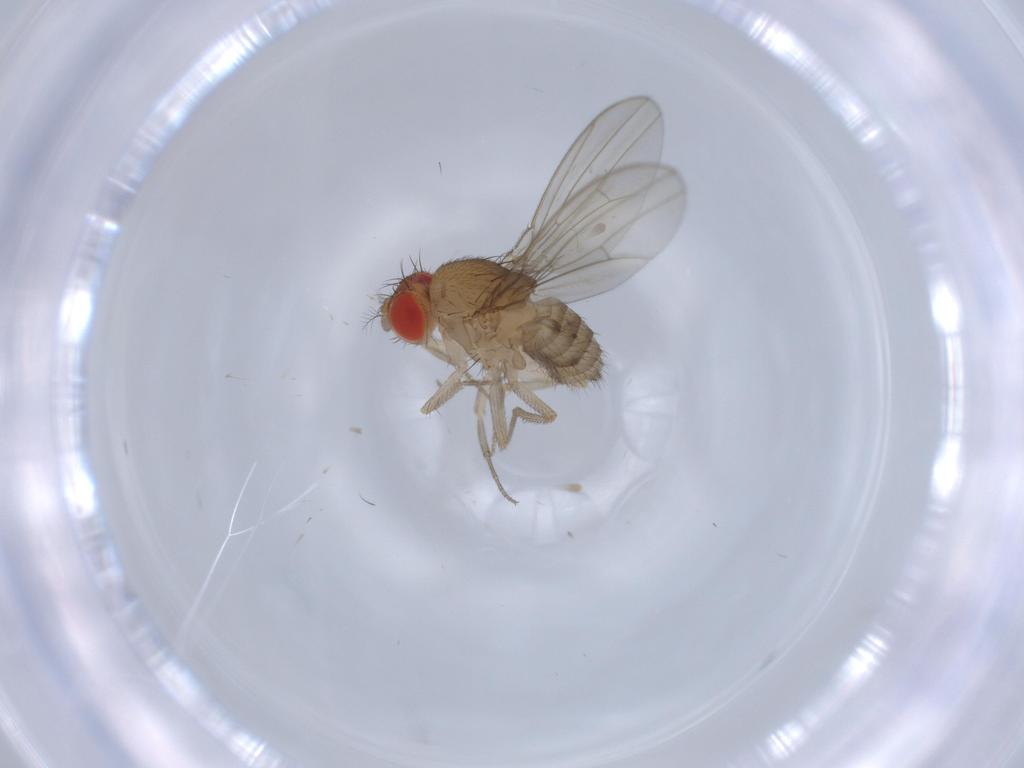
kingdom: Animalia
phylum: Arthropoda
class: Insecta
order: Diptera
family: Drosophilidae
